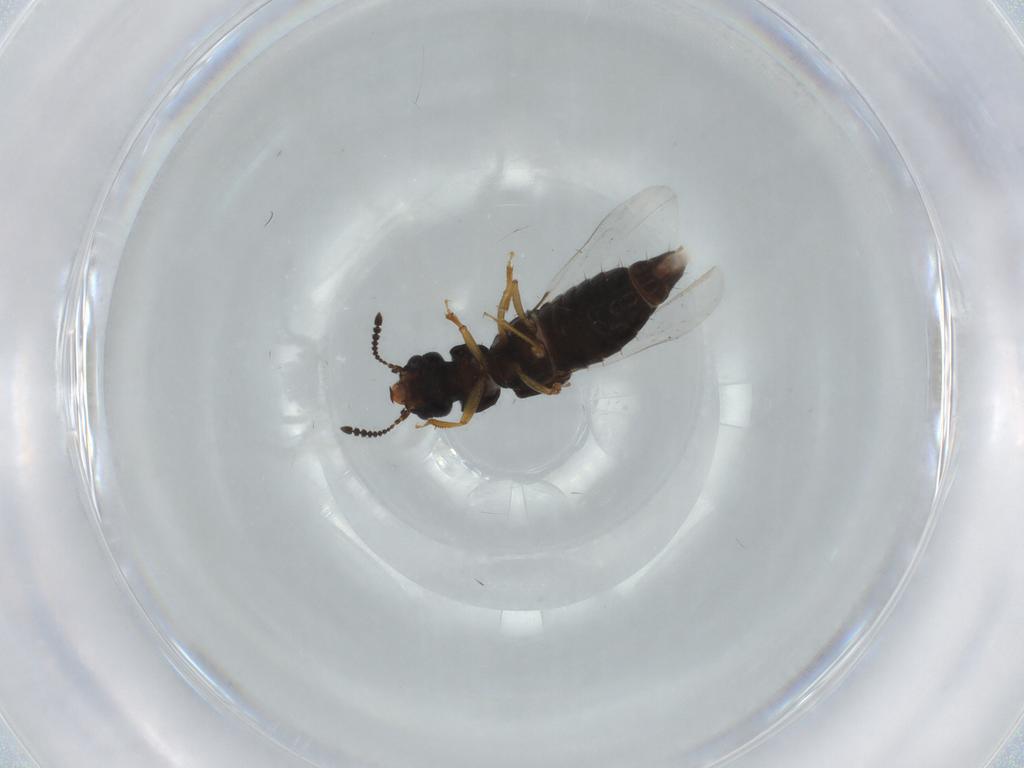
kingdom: Animalia
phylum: Arthropoda
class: Insecta
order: Coleoptera
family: Staphylinidae
